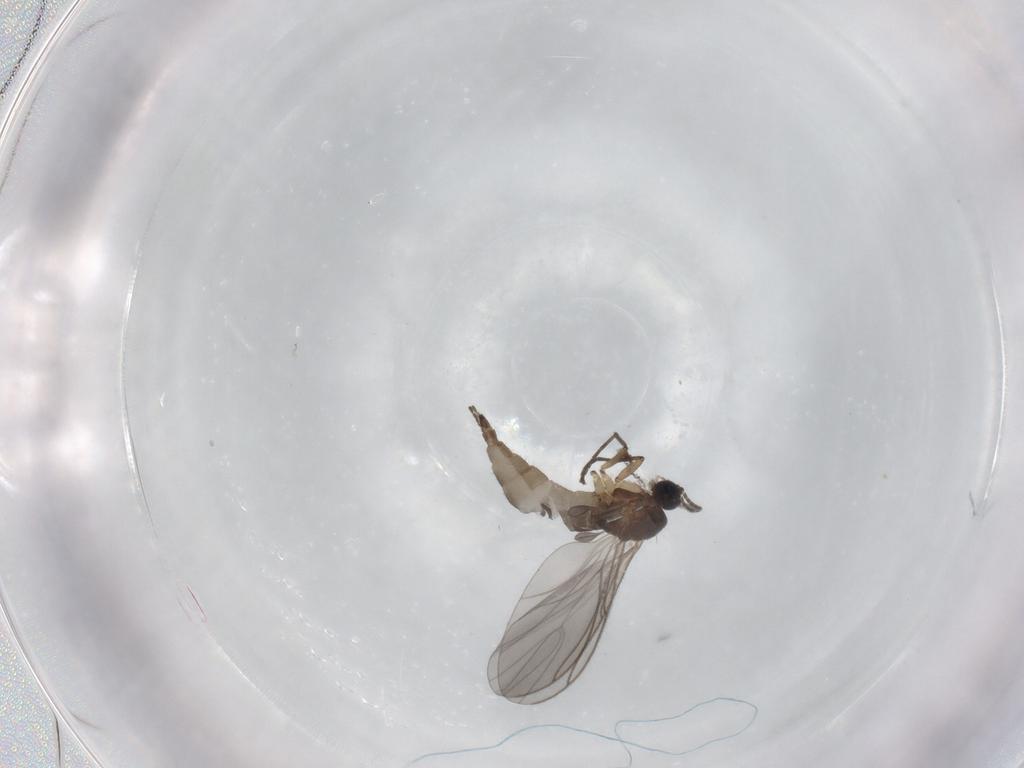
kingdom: Animalia
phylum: Arthropoda
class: Insecta
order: Diptera
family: Sciaridae
